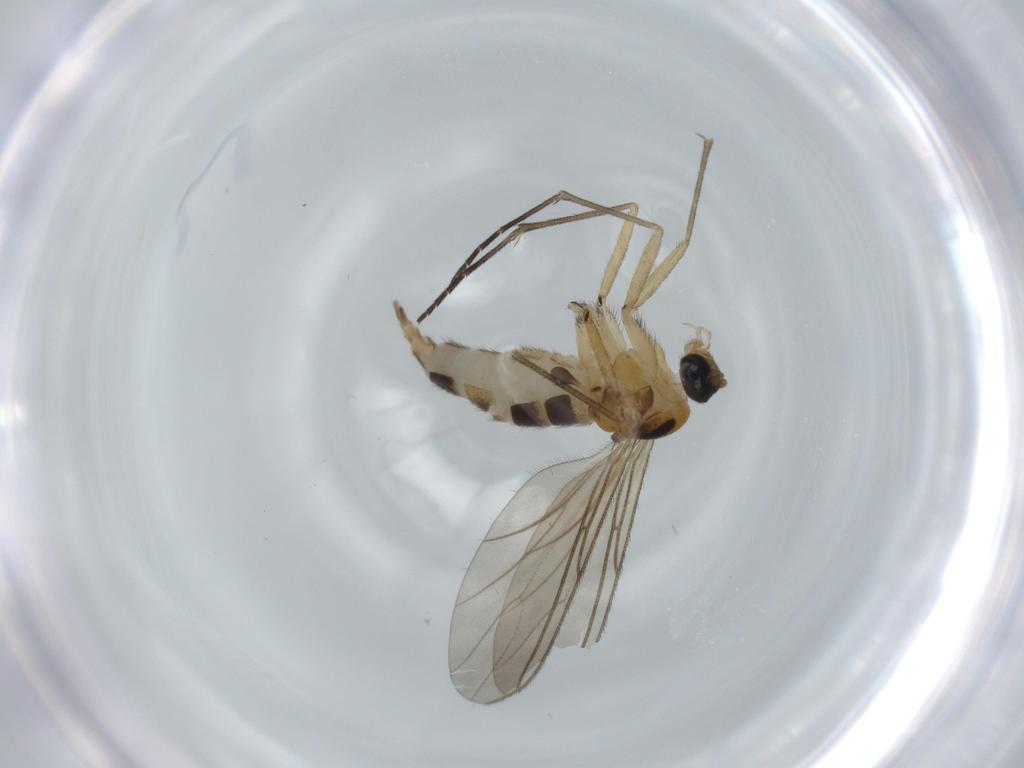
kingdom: Animalia
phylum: Arthropoda
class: Insecta
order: Diptera
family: Sciaridae
